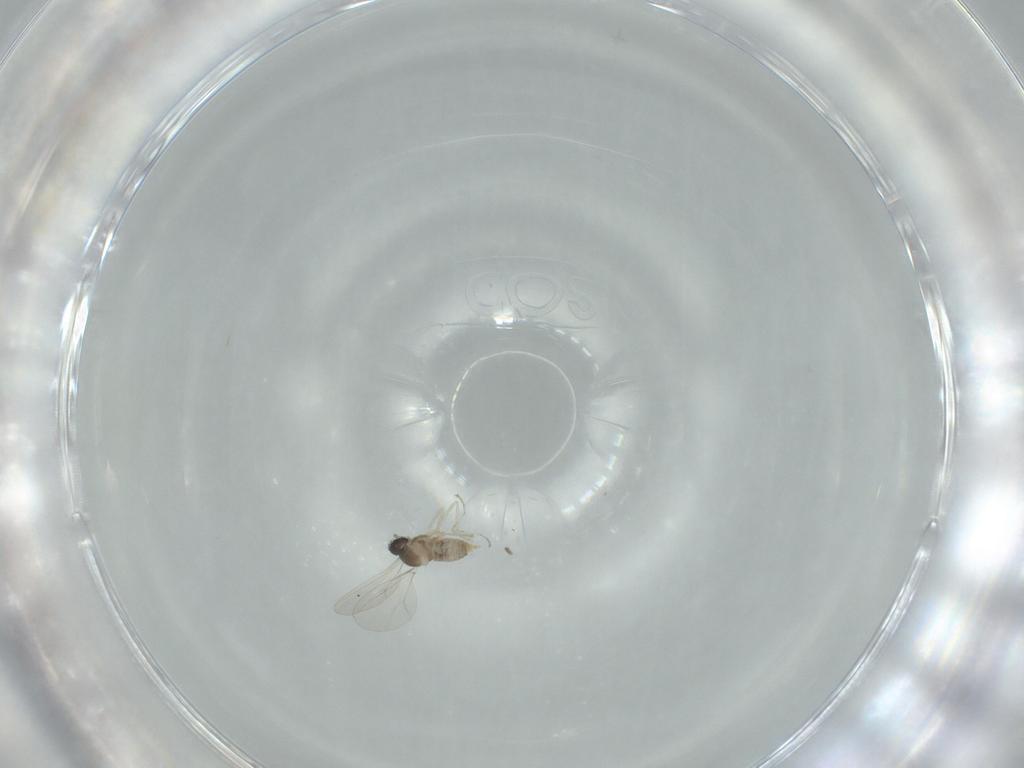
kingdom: Animalia
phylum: Arthropoda
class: Insecta
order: Diptera
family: Cecidomyiidae
